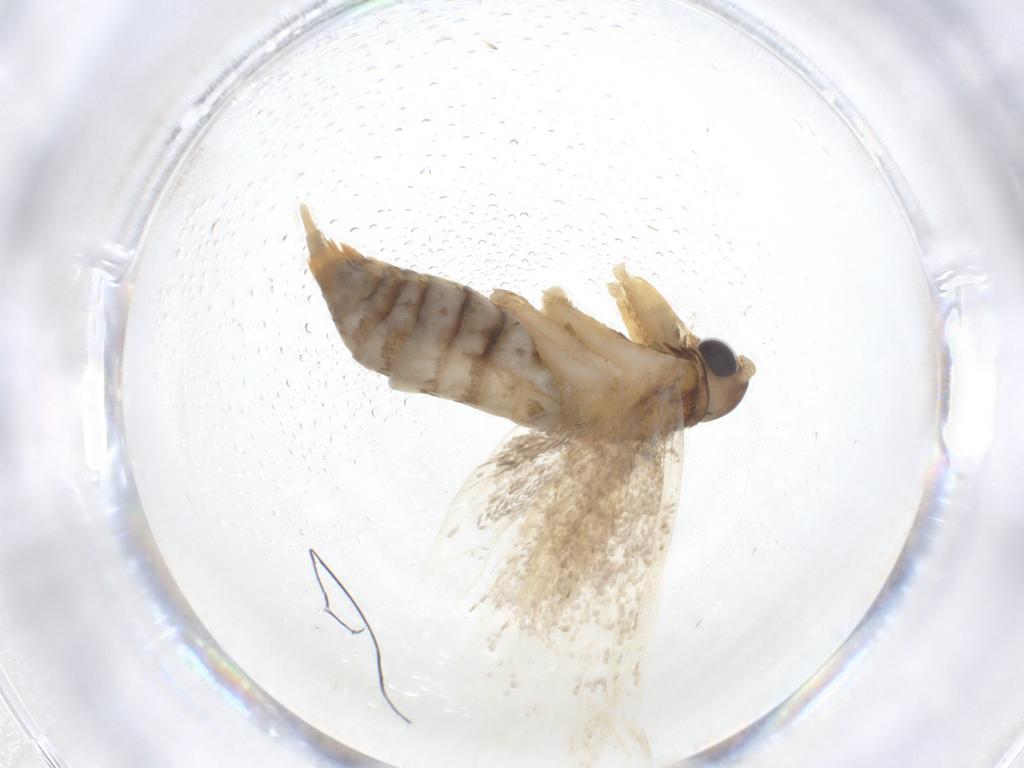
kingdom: Animalia
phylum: Arthropoda
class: Insecta
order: Lepidoptera
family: Lecithoceridae
